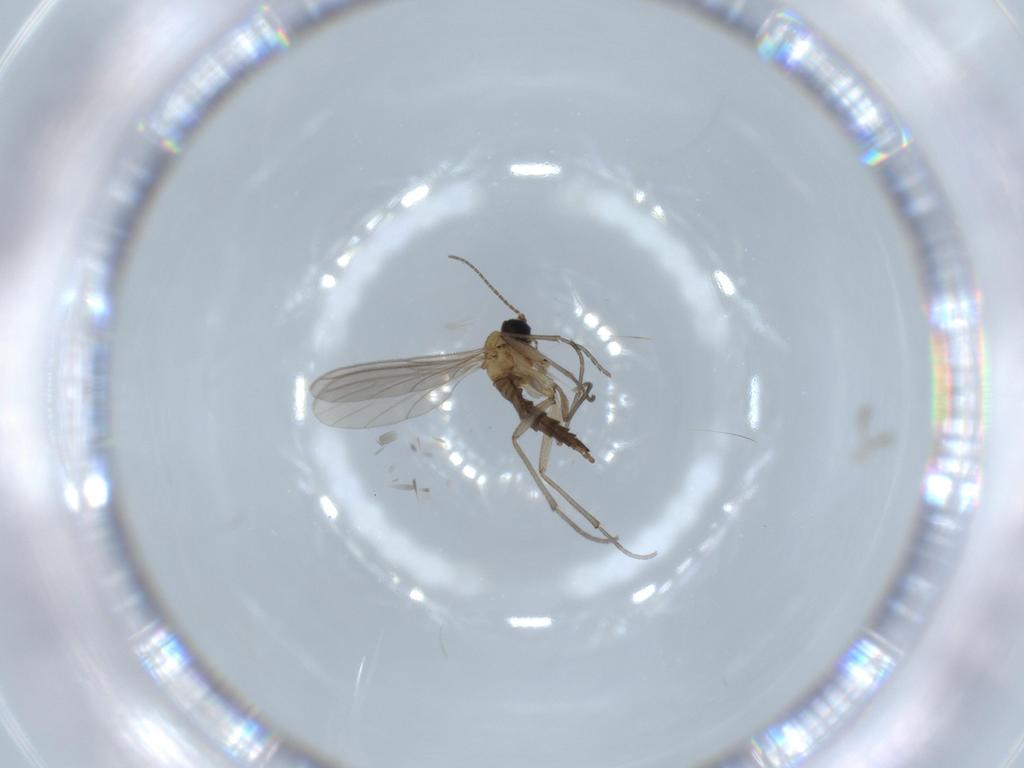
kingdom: Animalia
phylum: Arthropoda
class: Insecta
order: Diptera
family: Sciaridae
